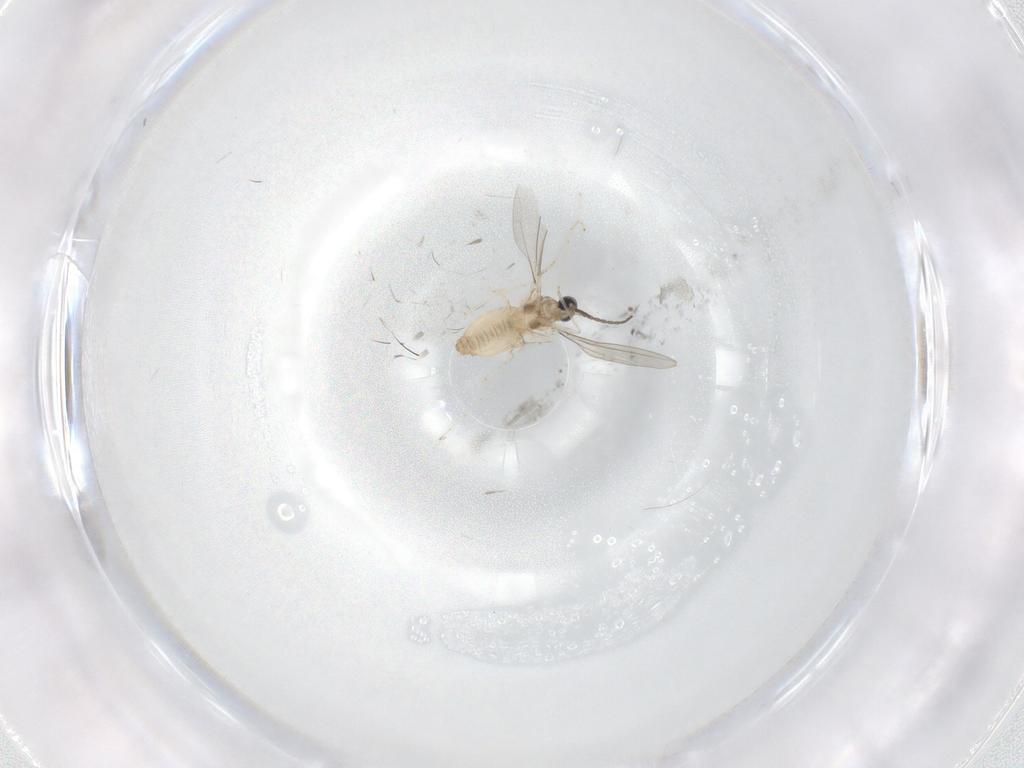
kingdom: Animalia
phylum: Arthropoda
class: Insecta
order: Diptera
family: Cecidomyiidae
